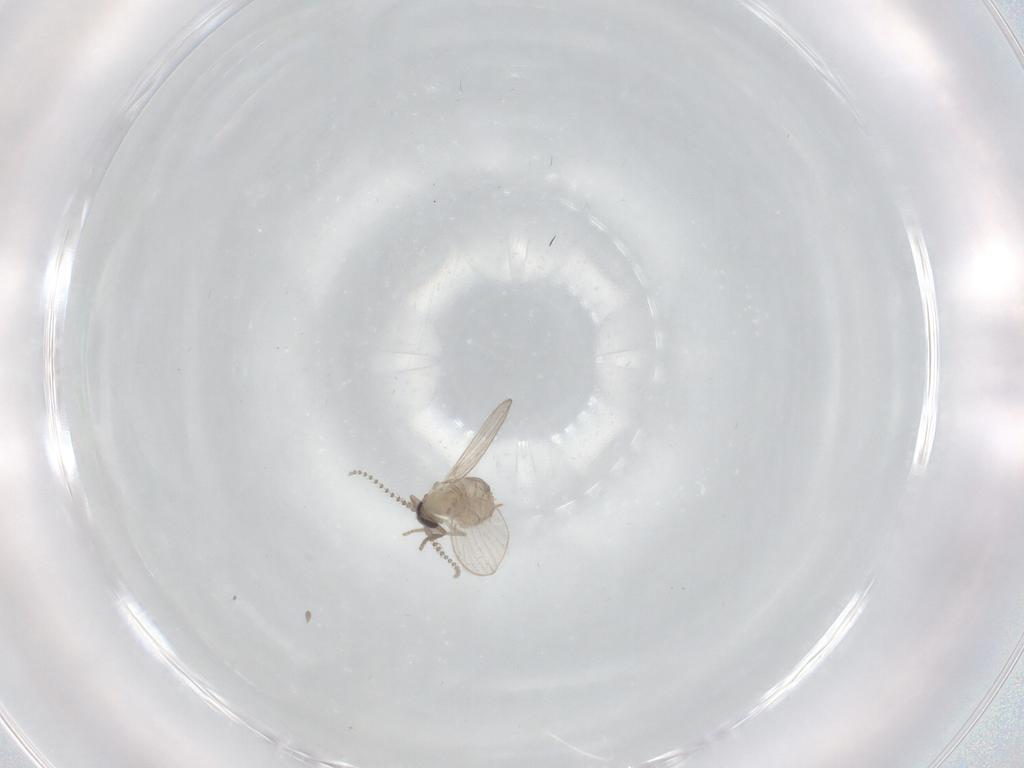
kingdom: Animalia
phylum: Arthropoda
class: Insecta
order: Diptera
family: Psychodidae
